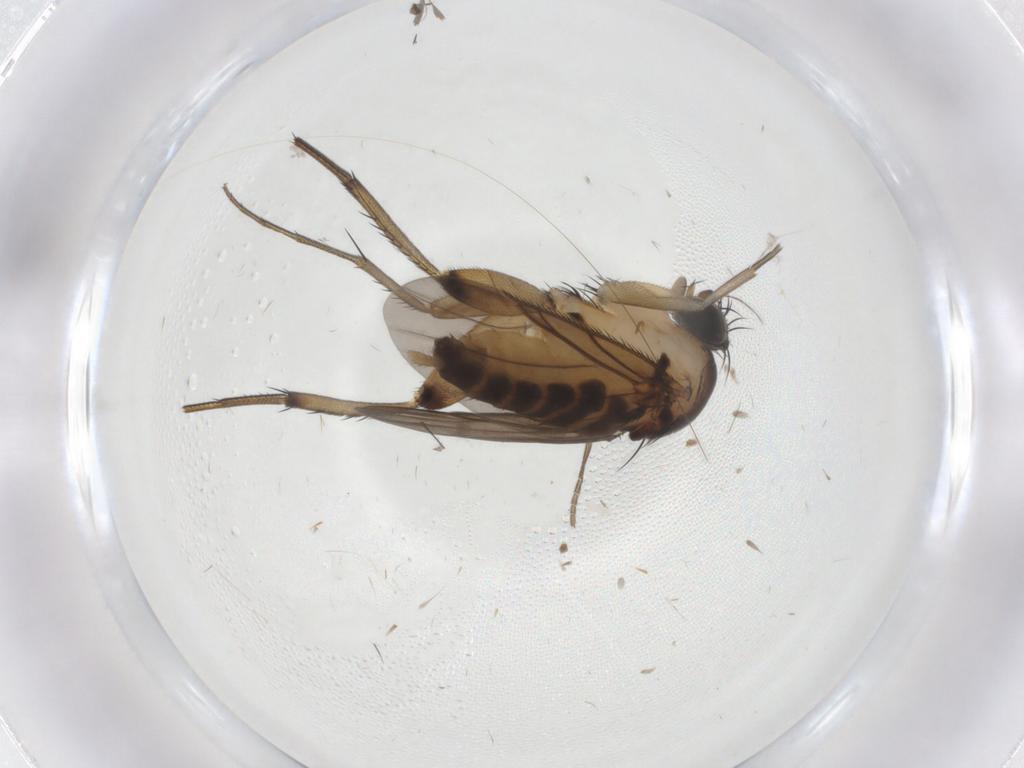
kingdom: Animalia
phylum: Arthropoda
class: Insecta
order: Diptera
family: Phoridae
